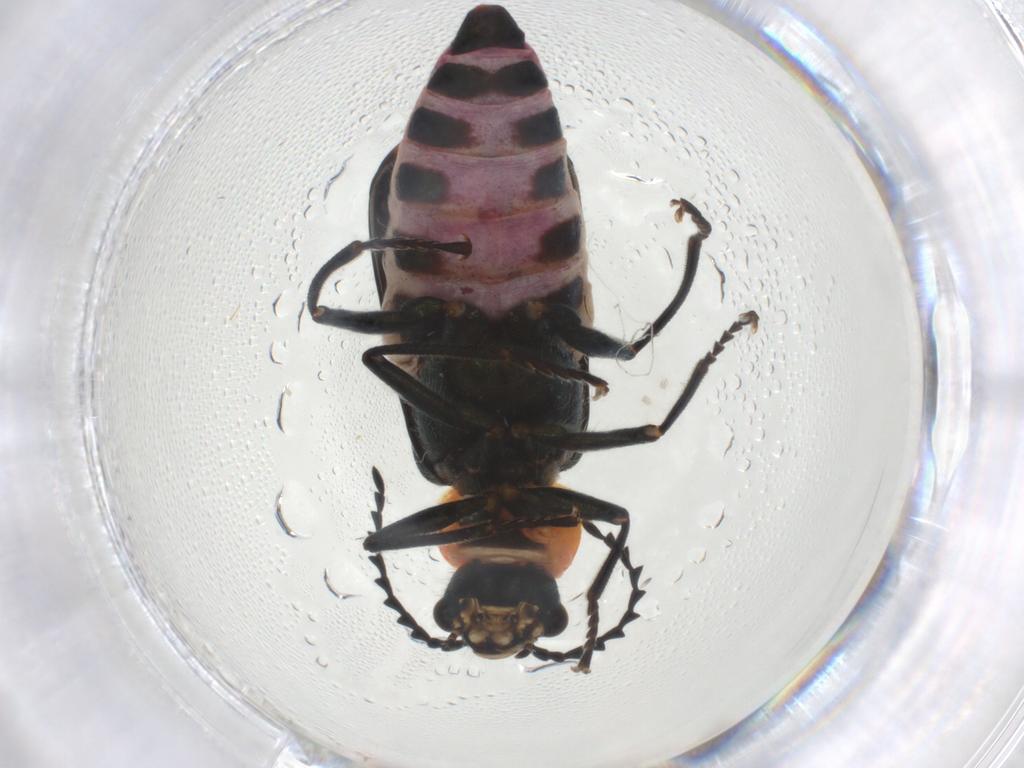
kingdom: Animalia
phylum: Arthropoda
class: Insecta
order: Coleoptera
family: Melyridae
